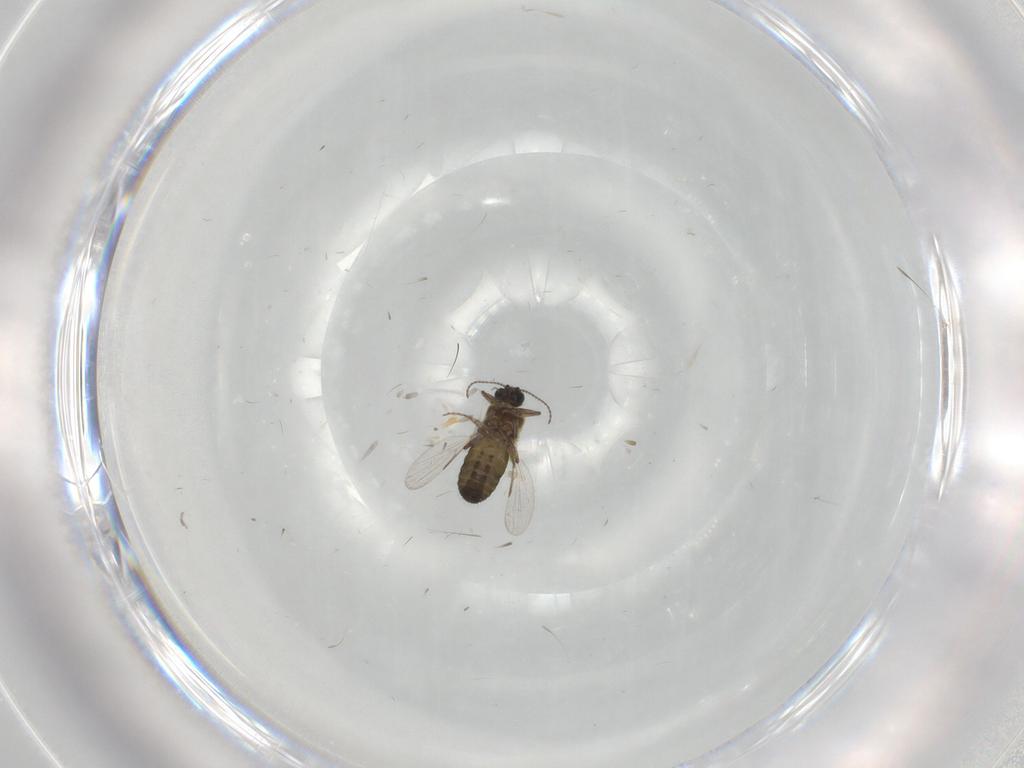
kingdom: Animalia
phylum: Arthropoda
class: Insecta
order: Diptera
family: Ceratopogonidae
